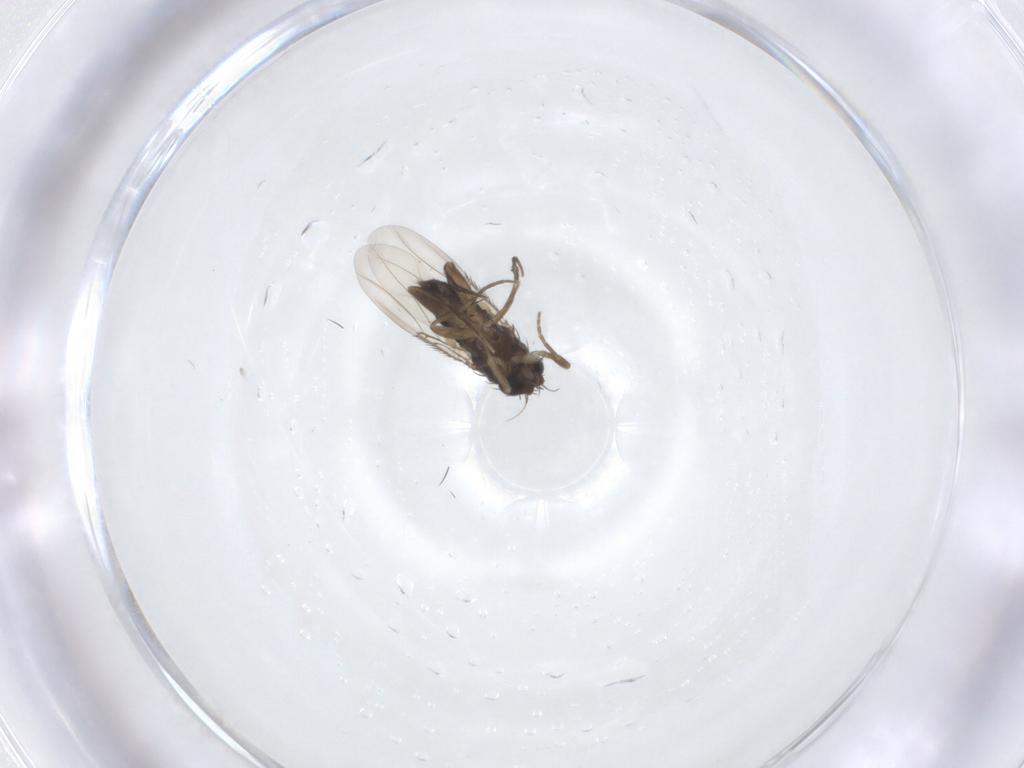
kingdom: Animalia
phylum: Arthropoda
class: Insecta
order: Diptera
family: Phoridae
